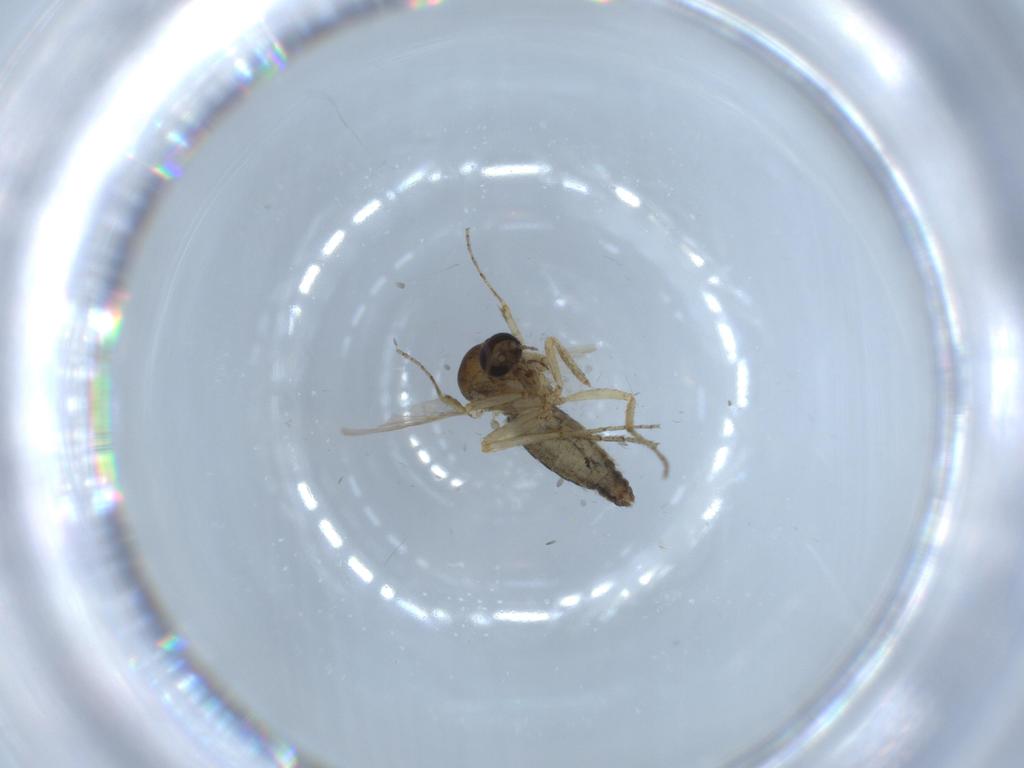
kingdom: Animalia
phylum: Arthropoda
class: Insecta
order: Diptera
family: Ceratopogonidae
